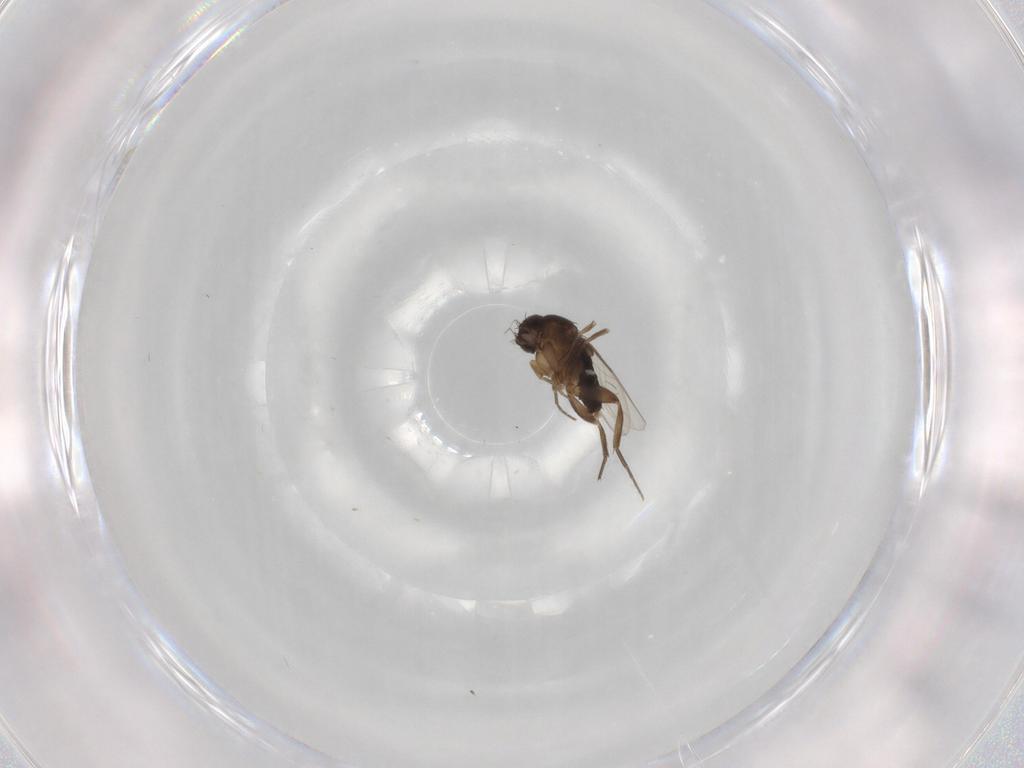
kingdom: Animalia
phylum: Arthropoda
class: Insecta
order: Diptera
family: Phoridae
